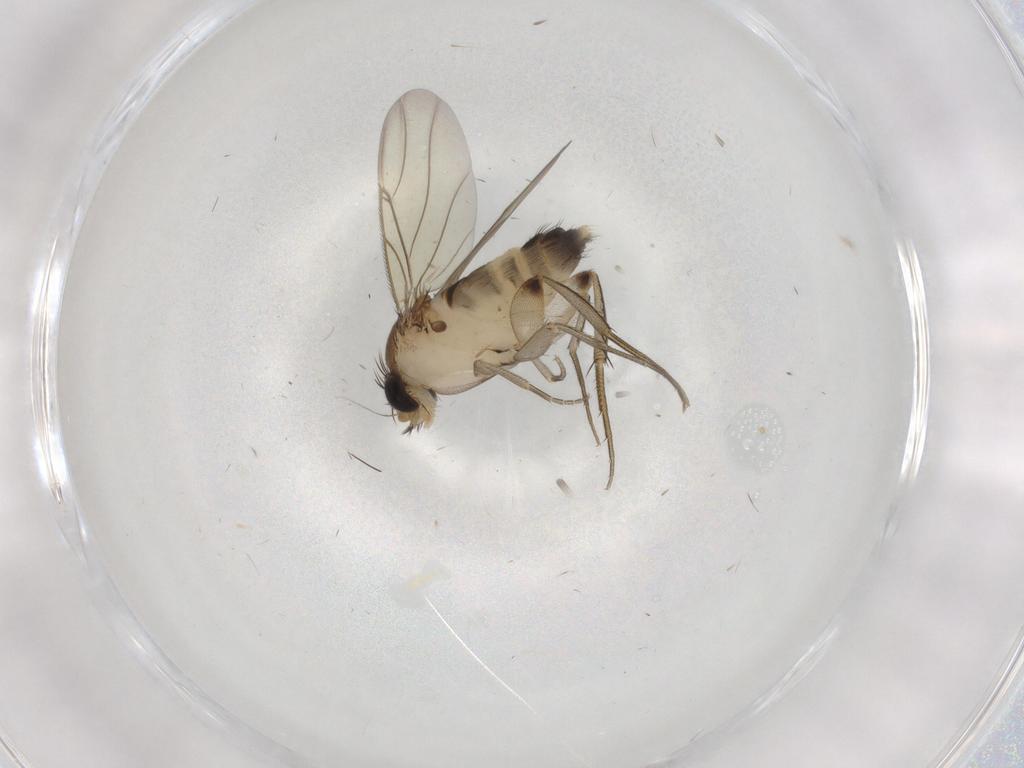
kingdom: Animalia
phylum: Arthropoda
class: Insecta
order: Diptera
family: Phoridae
